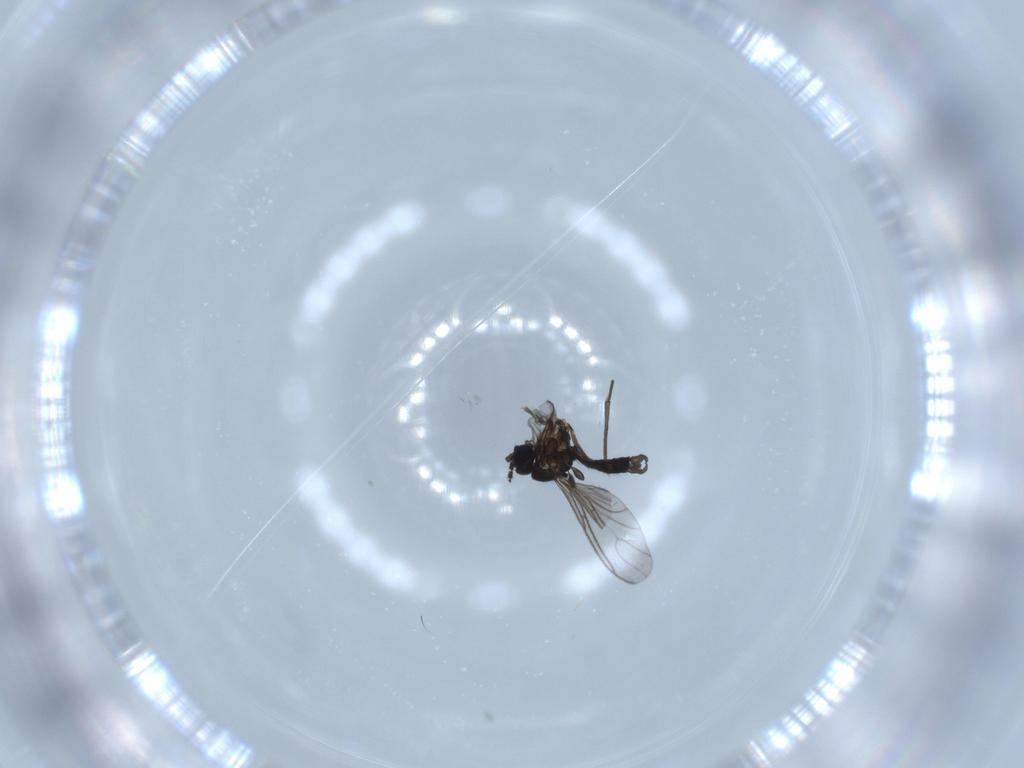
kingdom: Animalia
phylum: Arthropoda
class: Insecta
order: Diptera
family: Sciaridae
